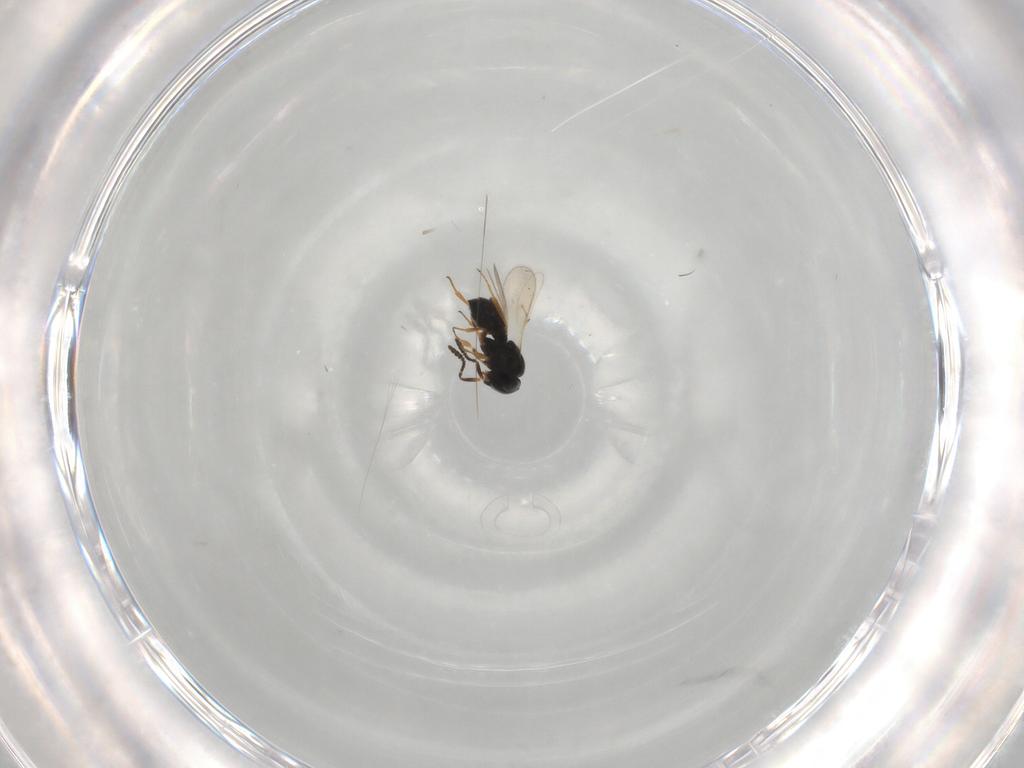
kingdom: Animalia
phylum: Arthropoda
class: Insecta
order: Hymenoptera
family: Scelionidae
